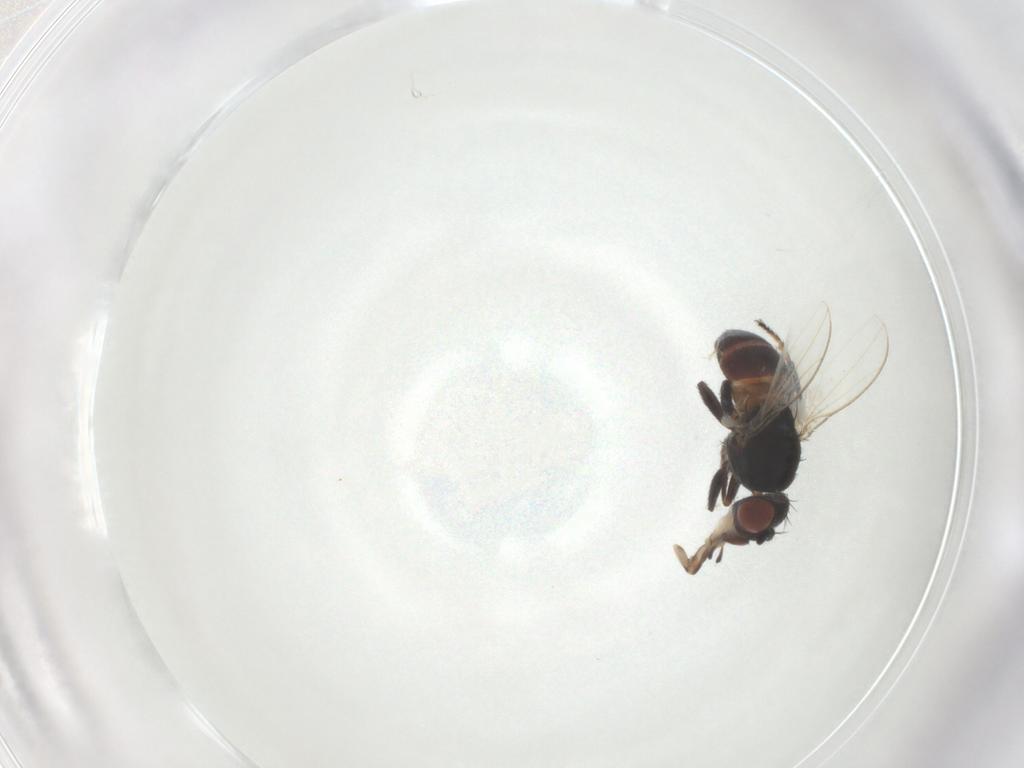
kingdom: Animalia
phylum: Arthropoda
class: Insecta
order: Diptera
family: Ephydridae
